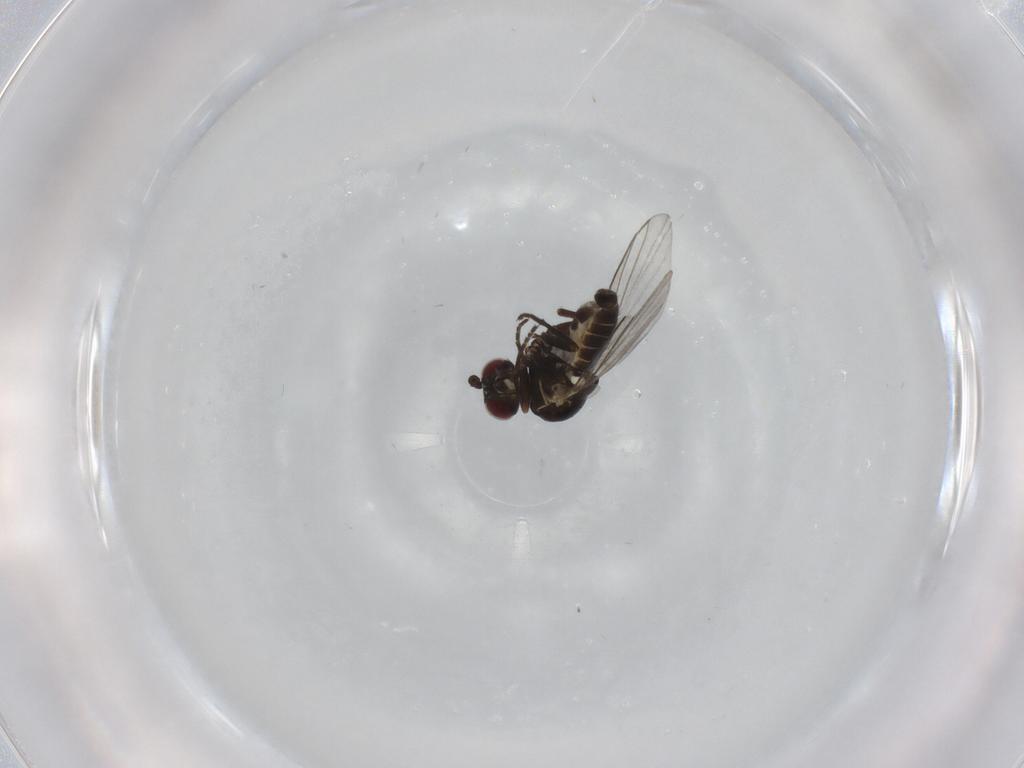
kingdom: Animalia
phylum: Arthropoda
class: Insecta
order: Diptera
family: Agromyzidae
